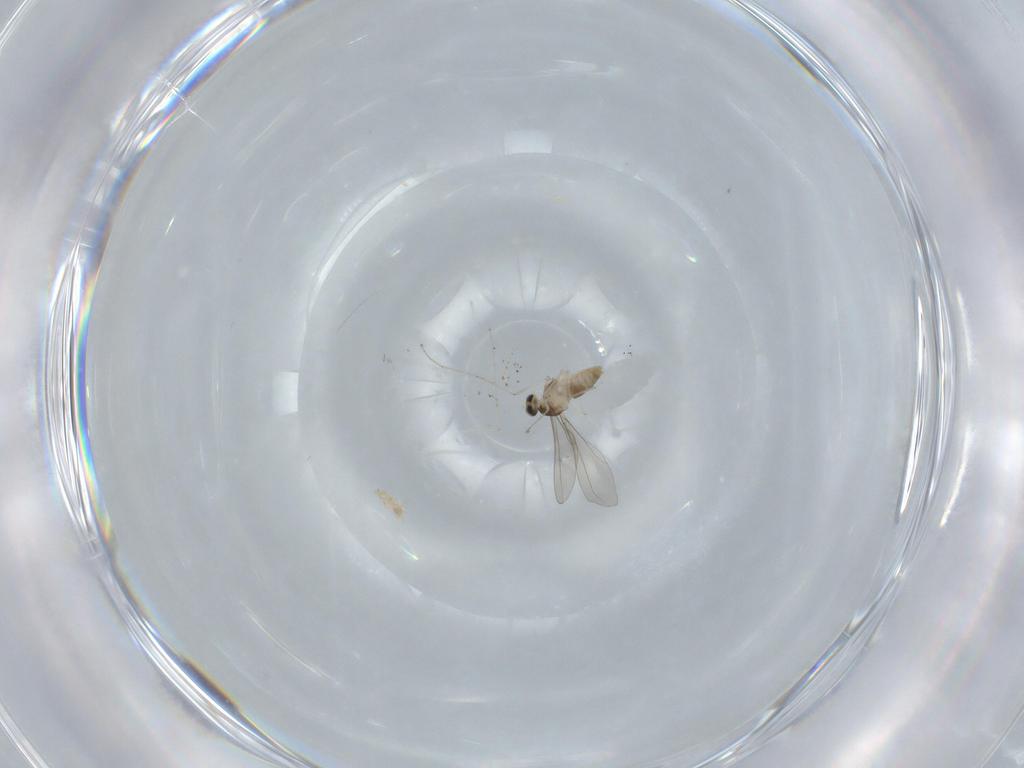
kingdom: Animalia
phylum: Arthropoda
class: Insecta
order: Diptera
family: Cecidomyiidae
